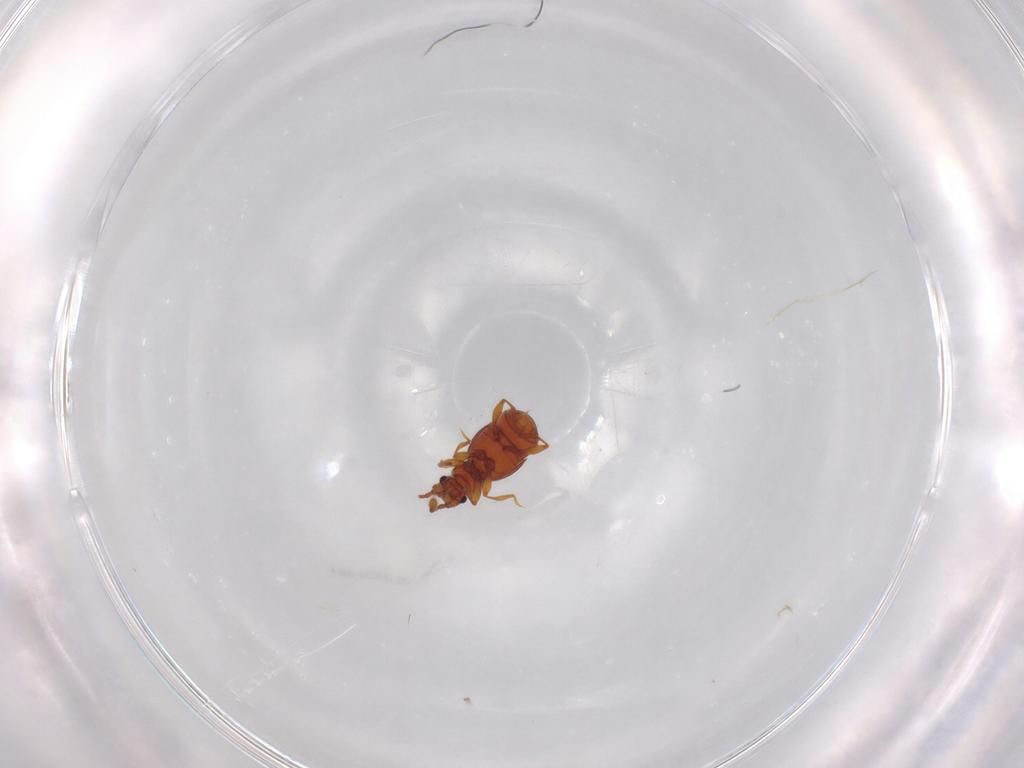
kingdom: Animalia
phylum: Arthropoda
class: Insecta
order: Coleoptera
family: Staphylinidae
